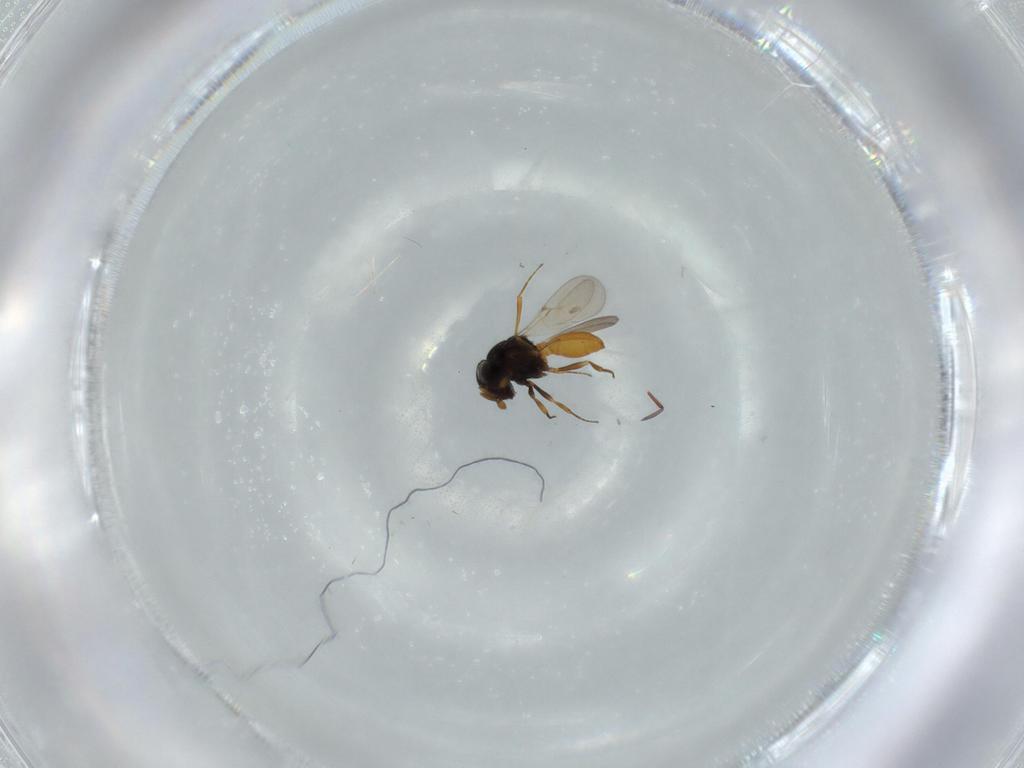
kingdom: Animalia
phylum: Arthropoda
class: Insecta
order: Hymenoptera
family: Scelionidae
